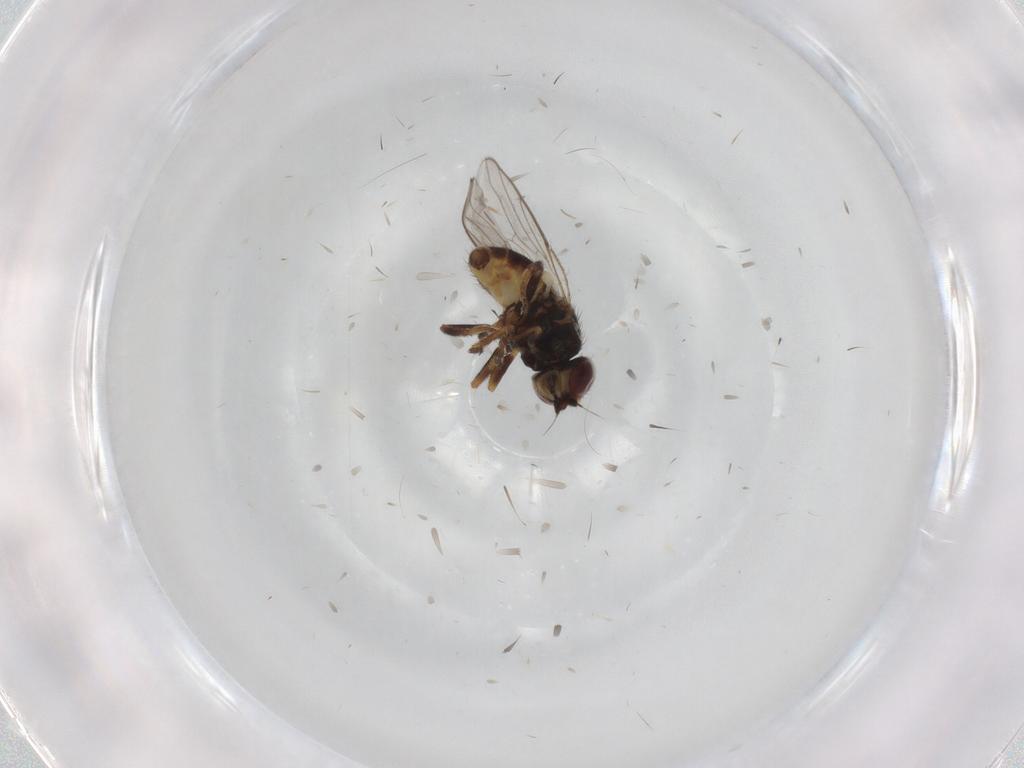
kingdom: Animalia
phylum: Arthropoda
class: Insecta
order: Diptera
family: Chloropidae
